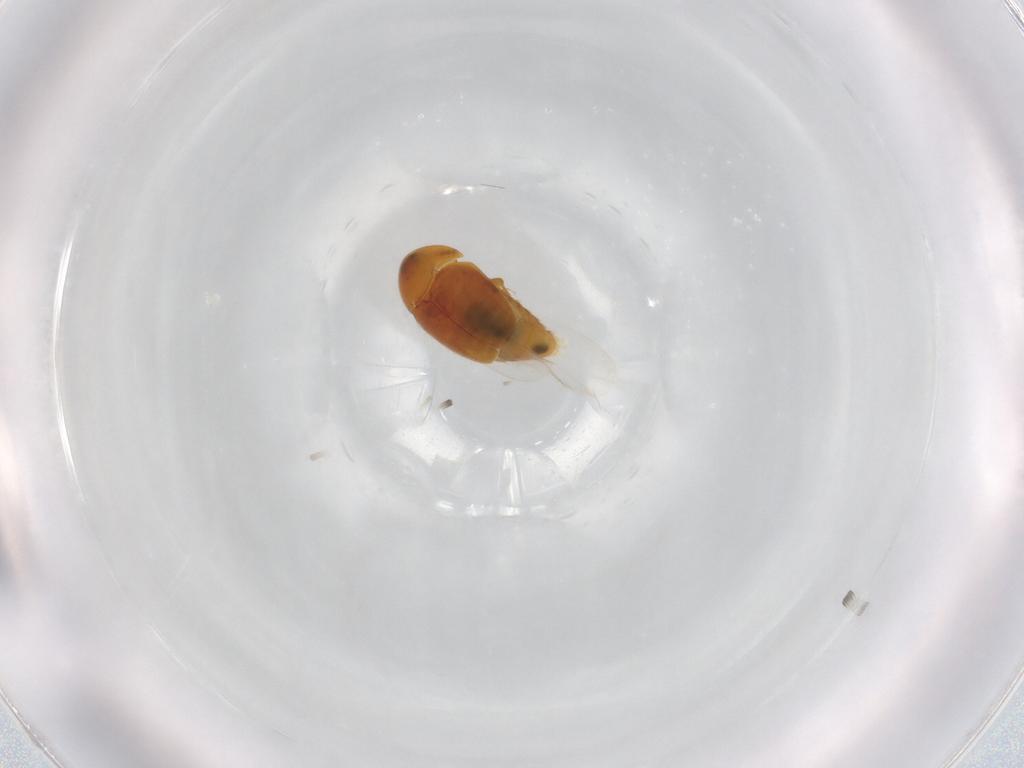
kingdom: Animalia
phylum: Arthropoda
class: Insecta
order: Coleoptera
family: Corylophidae
